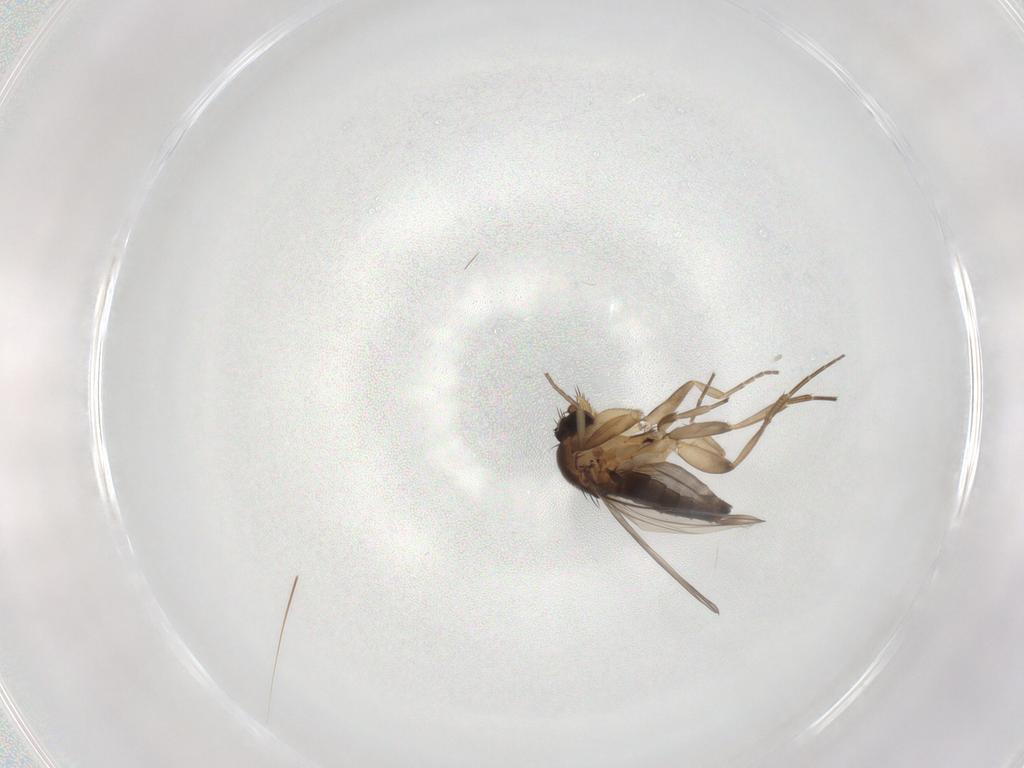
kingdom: Animalia
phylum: Arthropoda
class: Insecta
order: Diptera
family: Phoridae
